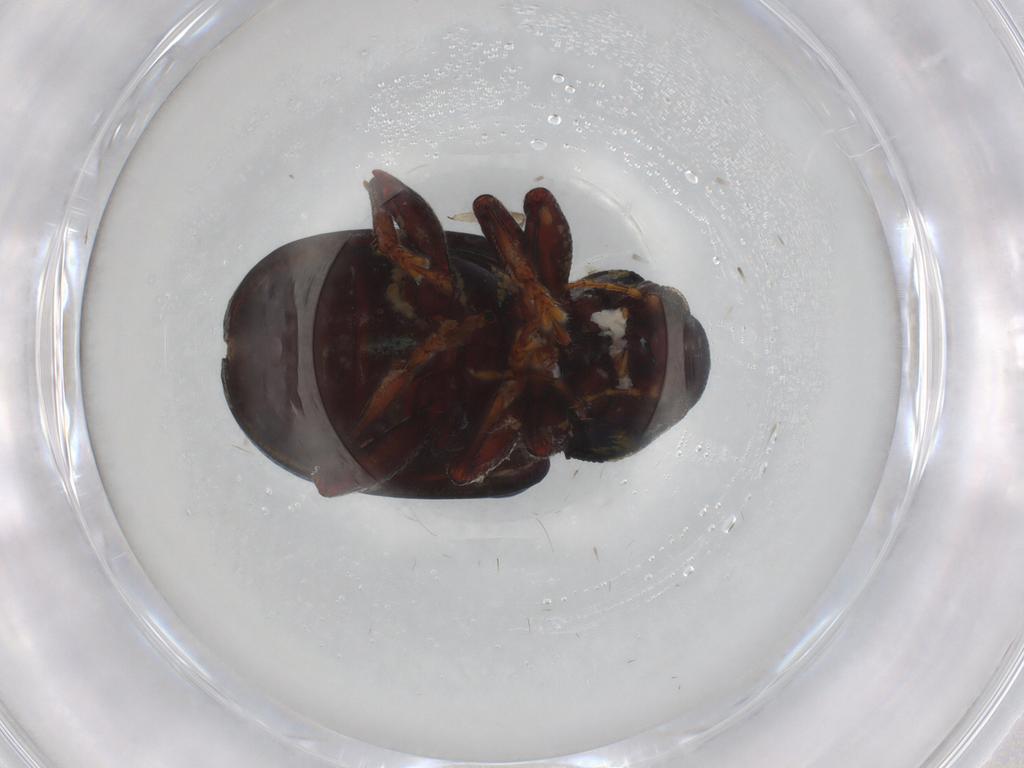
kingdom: Animalia
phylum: Arthropoda
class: Insecta
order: Coleoptera
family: Chrysomelidae
